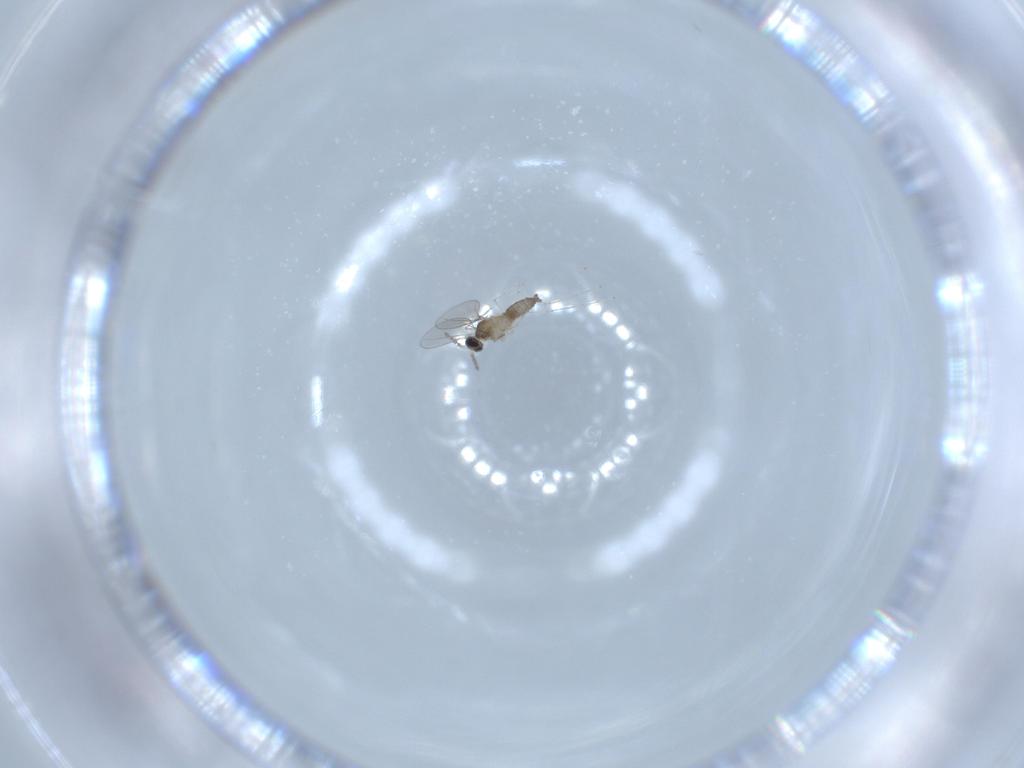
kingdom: Animalia
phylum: Arthropoda
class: Insecta
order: Diptera
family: Cecidomyiidae
